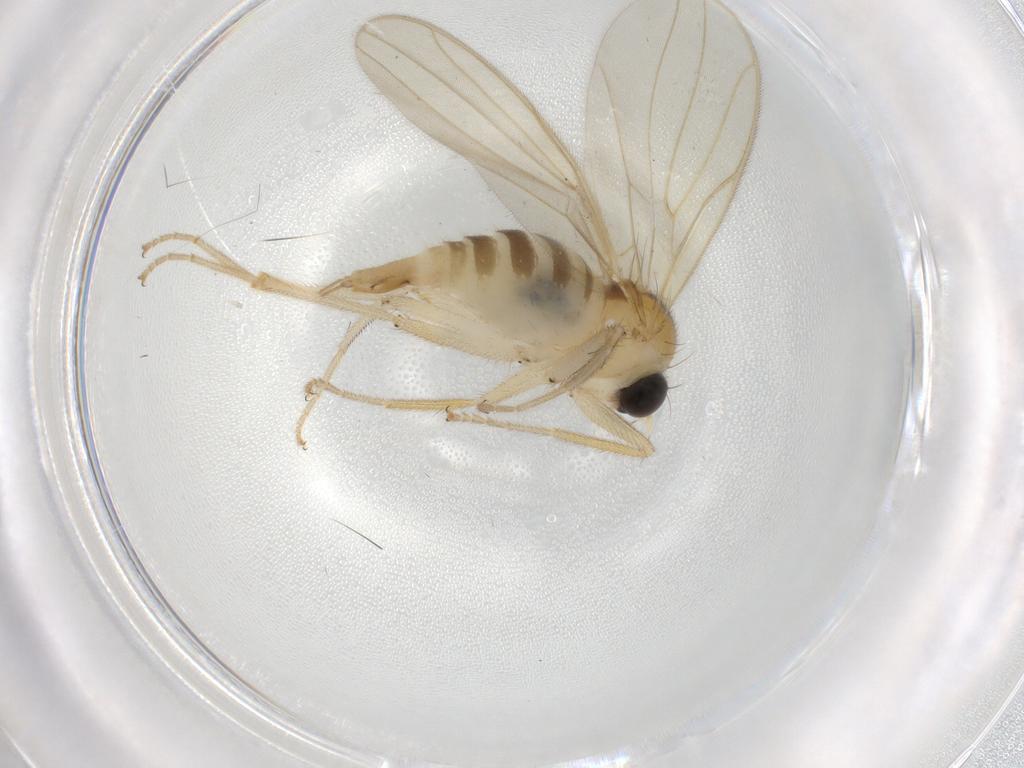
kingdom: Animalia
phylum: Arthropoda
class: Insecta
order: Diptera
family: Hybotidae
